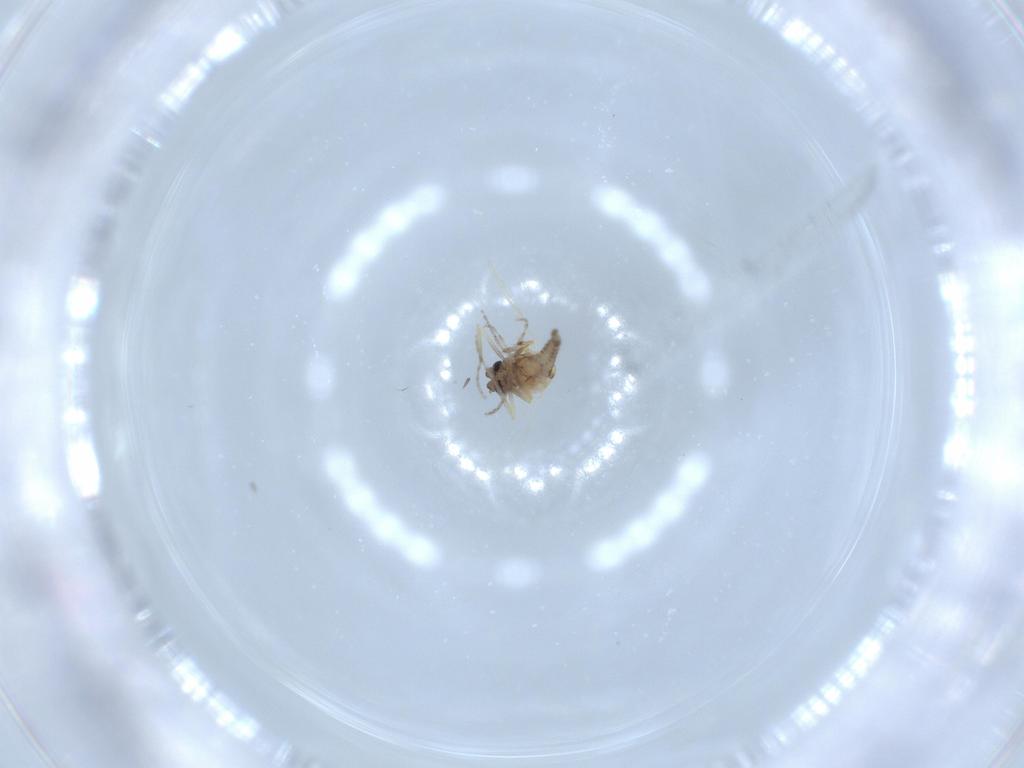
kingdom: Animalia
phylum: Arthropoda
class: Insecta
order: Diptera
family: Ceratopogonidae
